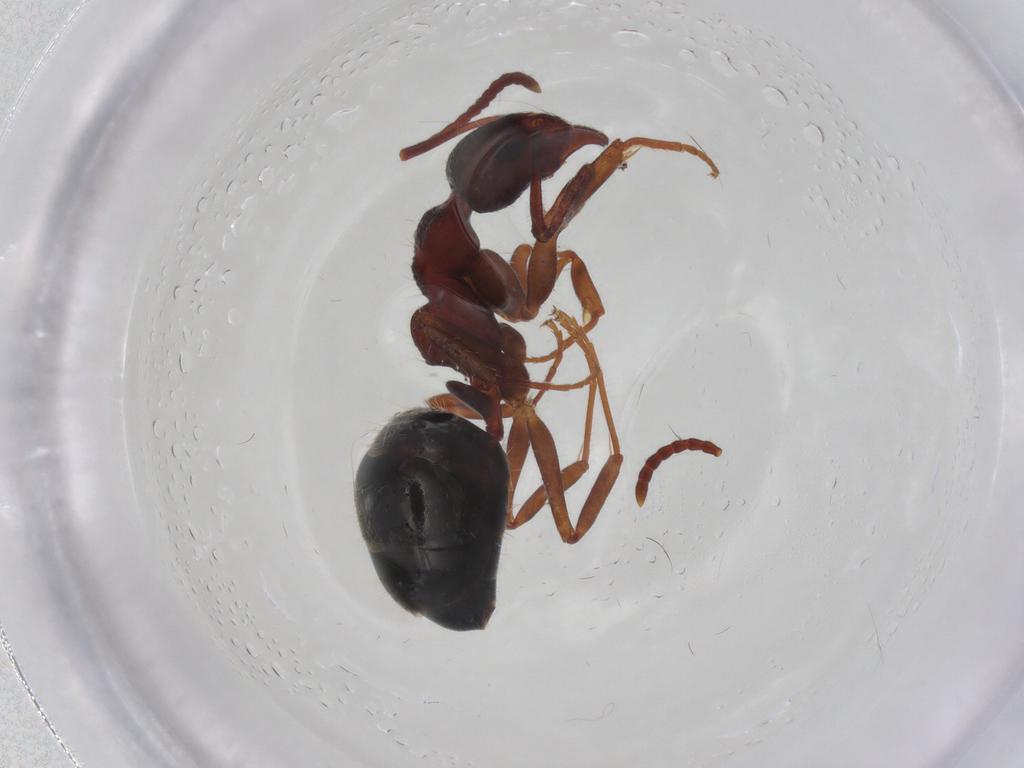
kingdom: Animalia
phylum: Arthropoda
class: Insecta
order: Hymenoptera
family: Formicidae
